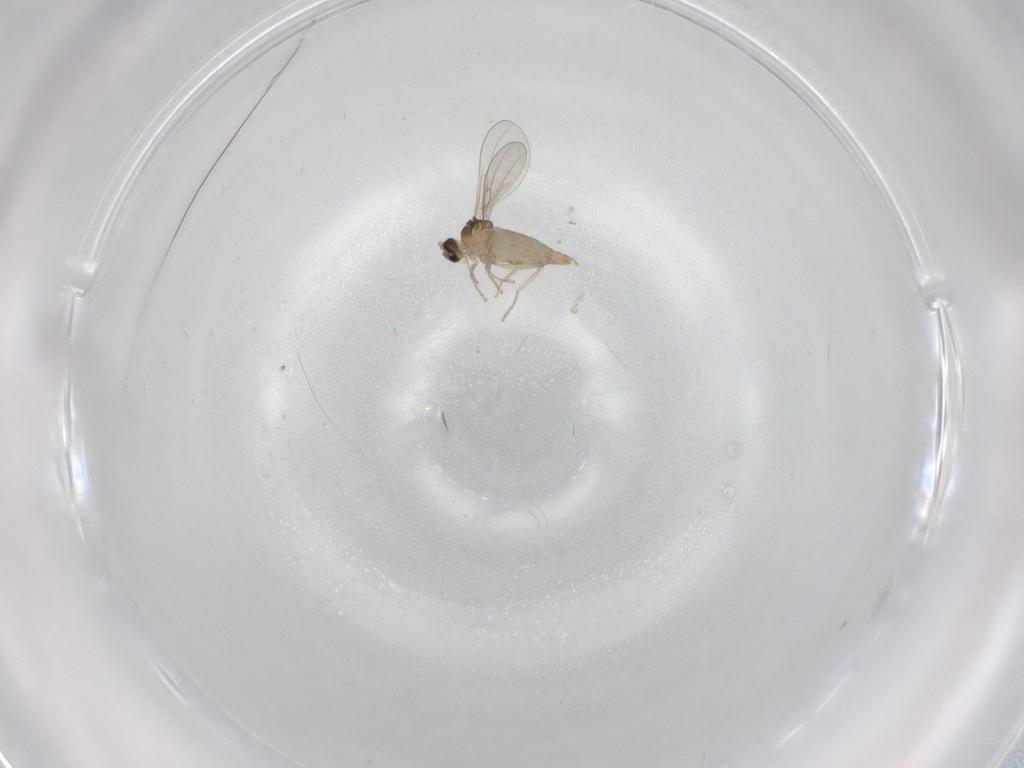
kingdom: Animalia
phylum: Arthropoda
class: Insecta
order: Diptera
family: Cecidomyiidae
